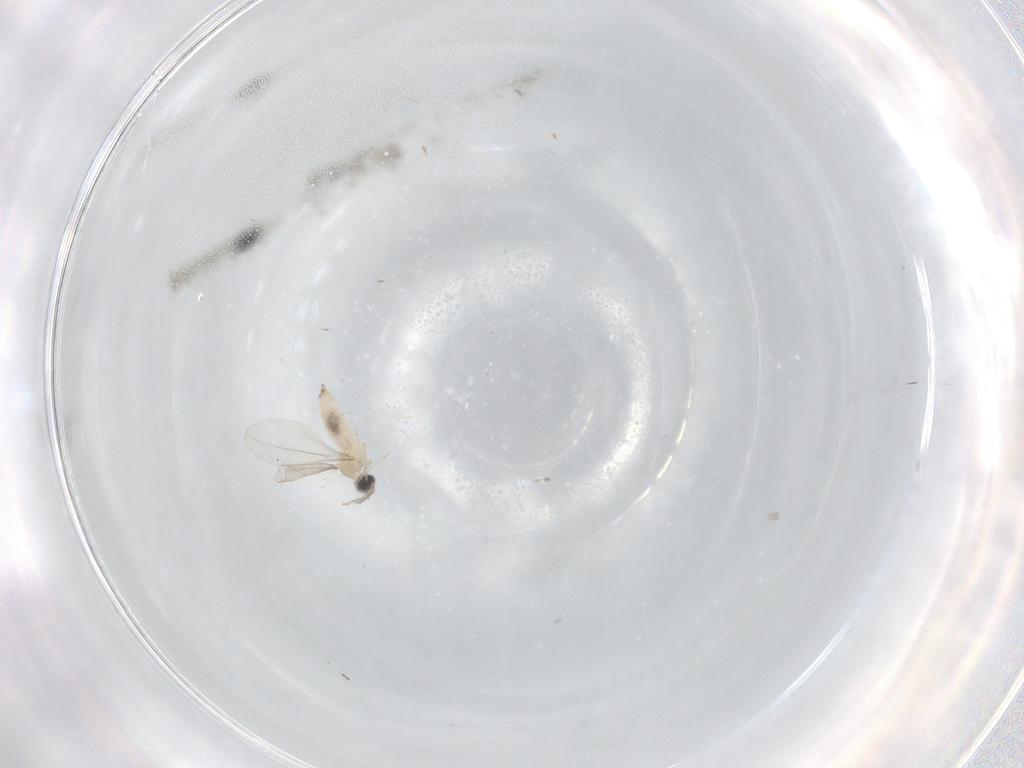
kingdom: Animalia
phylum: Arthropoda
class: Insecta
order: Diptera
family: Cecidomyiidae
